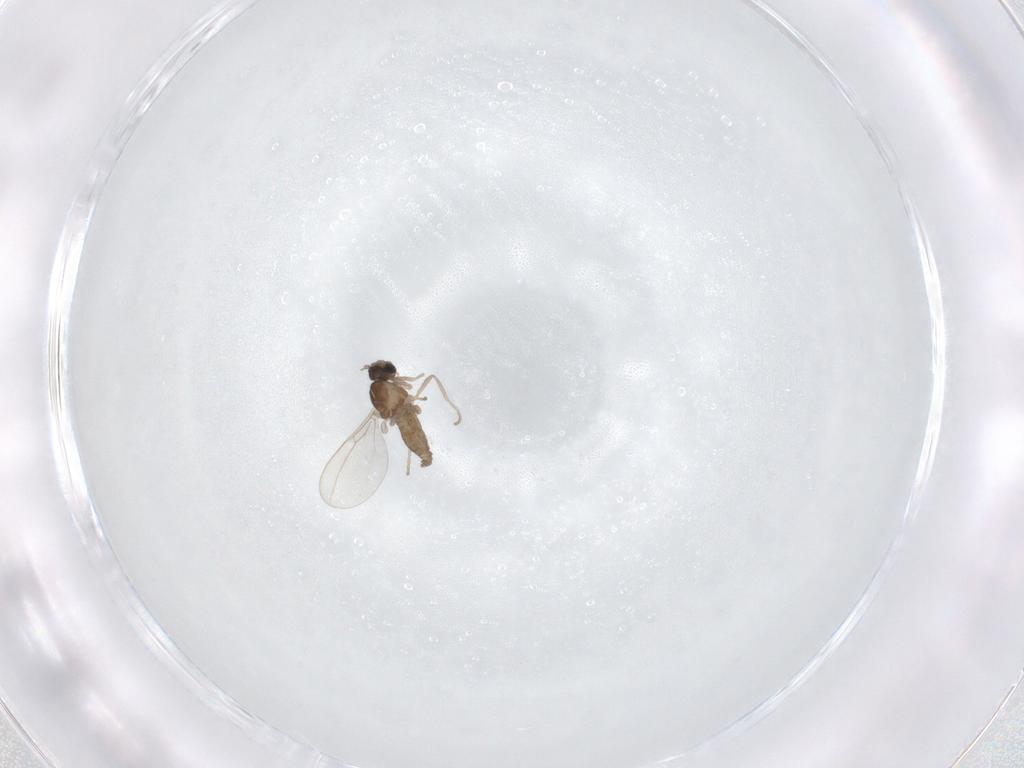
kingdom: Animalia
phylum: Arthropoda
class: Insecta
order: Diptera
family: Cecidomyiidae
